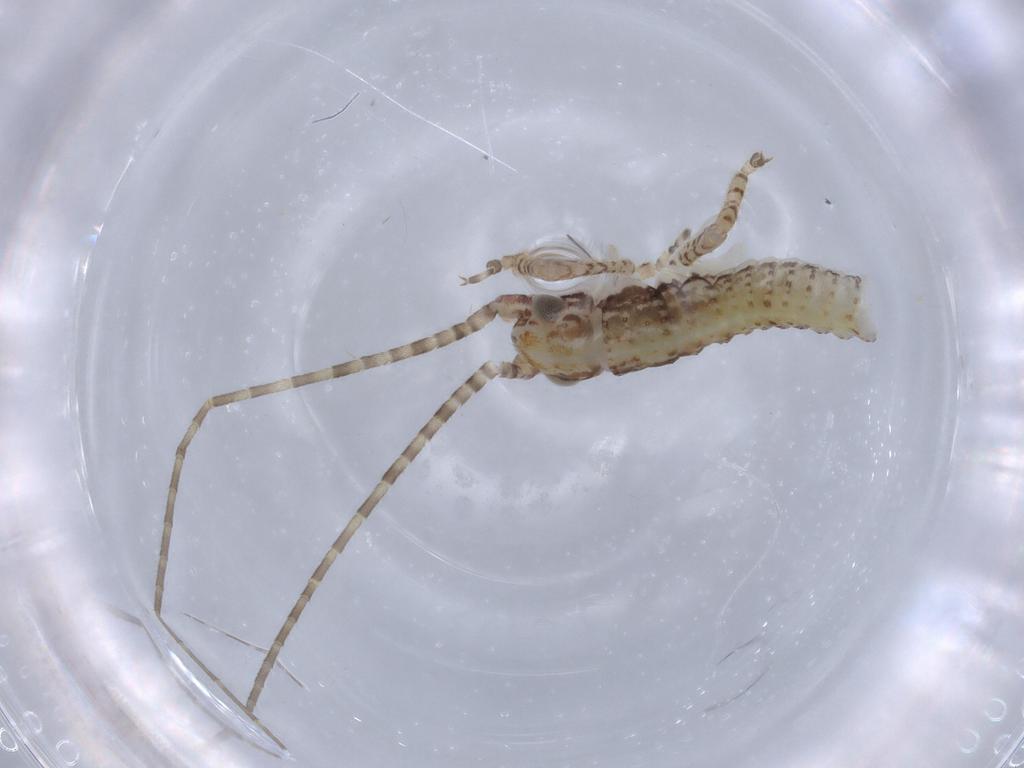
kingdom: Animalia
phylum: Arthropoda
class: Insecta
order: Orthoptera
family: Gryllidae
